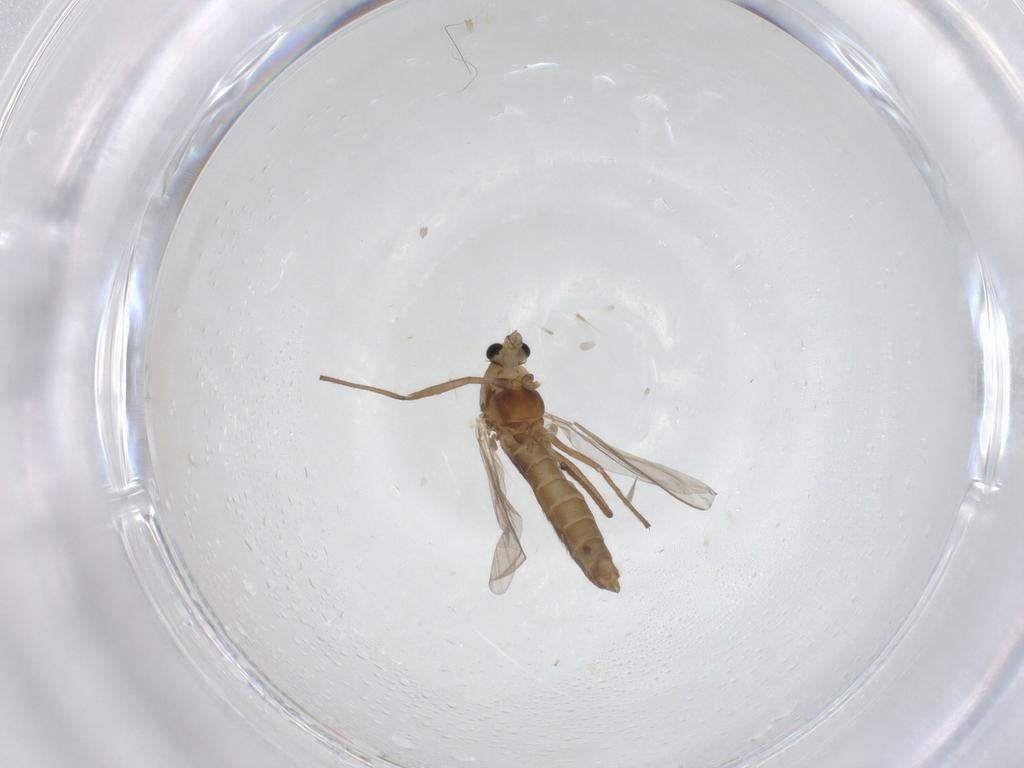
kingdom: Animalia
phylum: Arthropoda
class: Insecta
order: Diptera
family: Chironomidae
